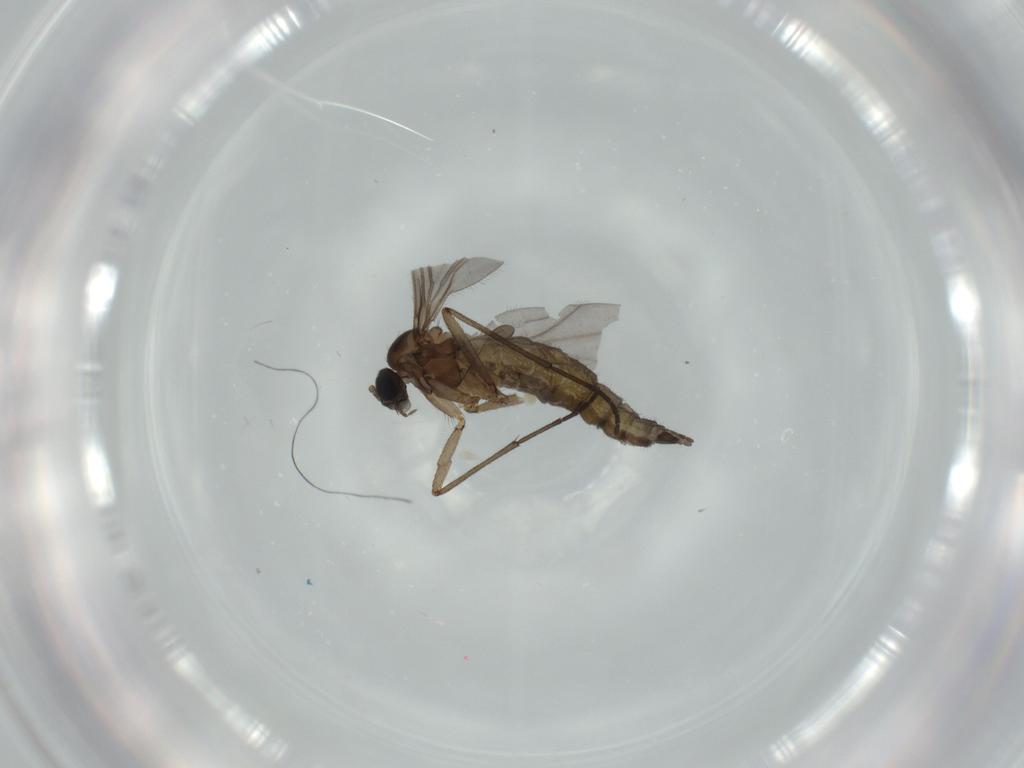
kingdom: Animalia
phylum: Arthropoda
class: Insecta
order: Diptera
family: Sciaridae
